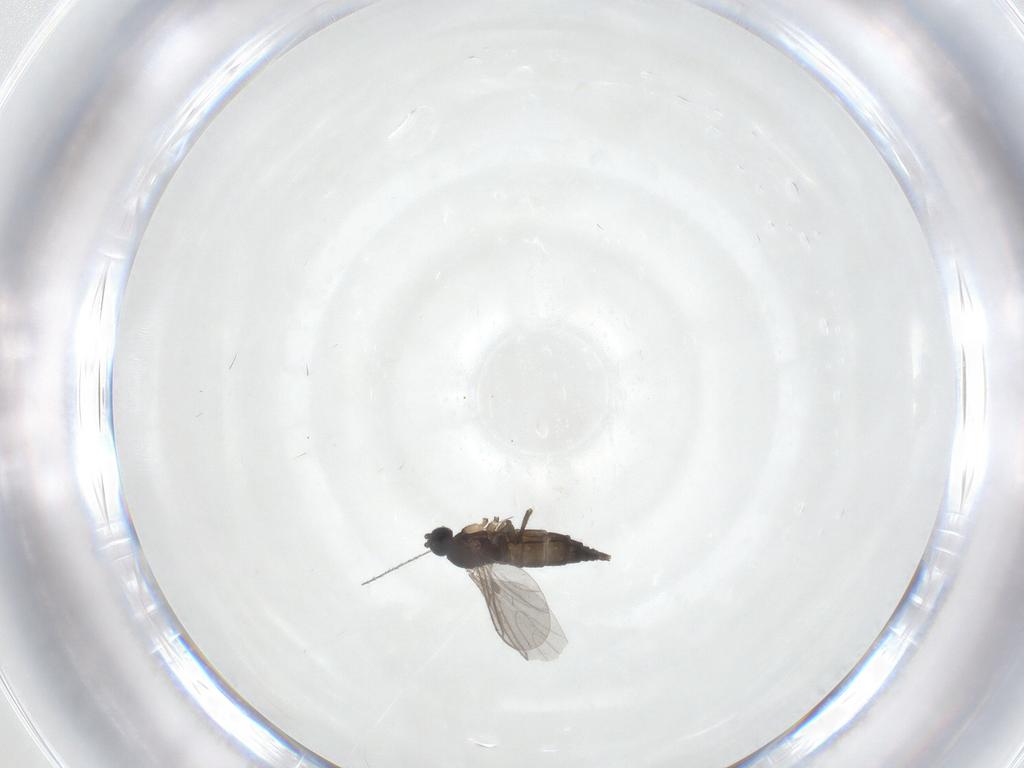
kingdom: Animalia
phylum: Arthropoda
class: Insecta
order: Diptera
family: Sciaridae
